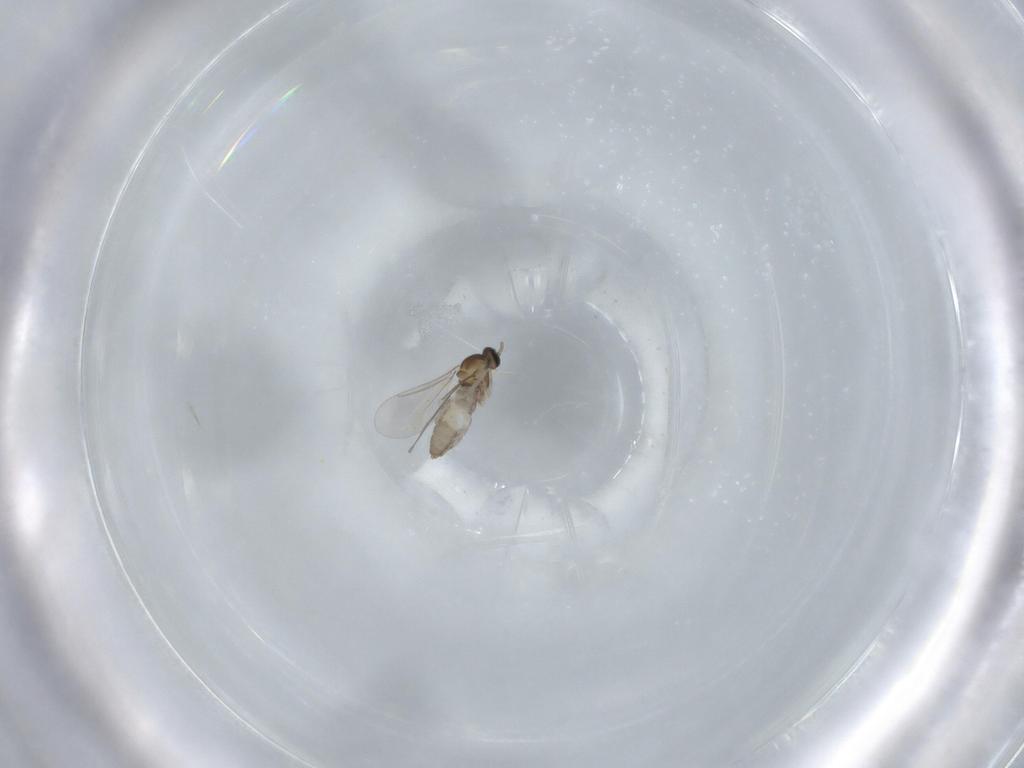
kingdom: Animalia
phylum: Arthropoda
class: Insecta
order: Diptera
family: Cecidomyiidae
